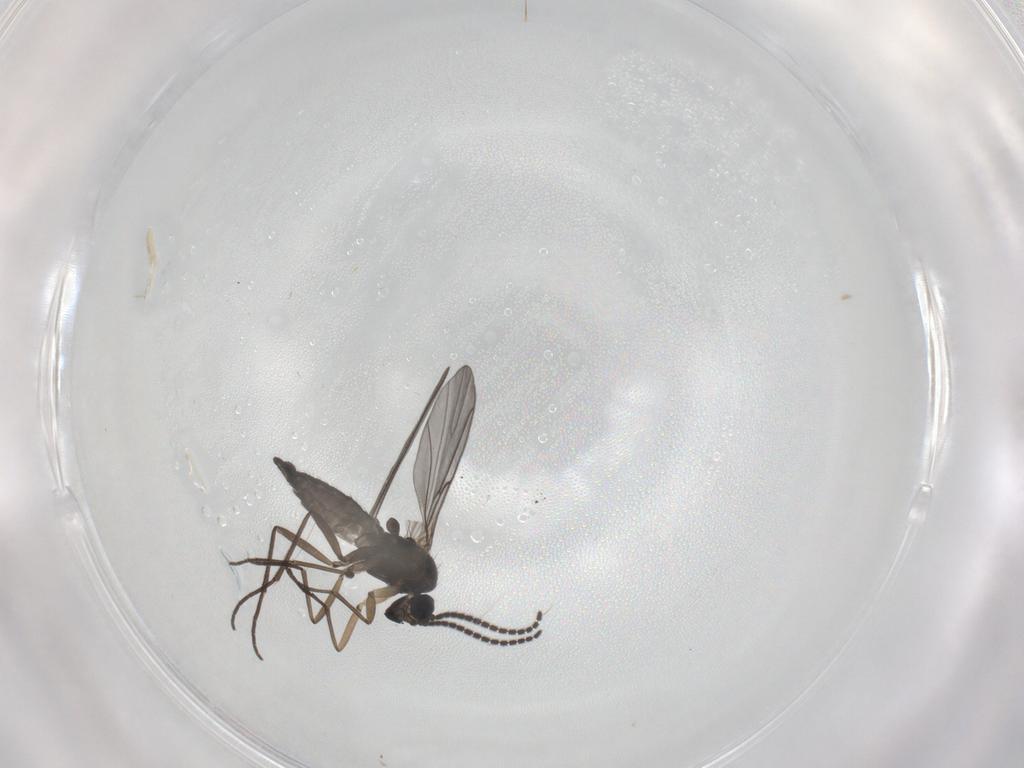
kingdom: Animalia
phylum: Arthropoda
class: Insecta
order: Diptera
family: Sciaridae
